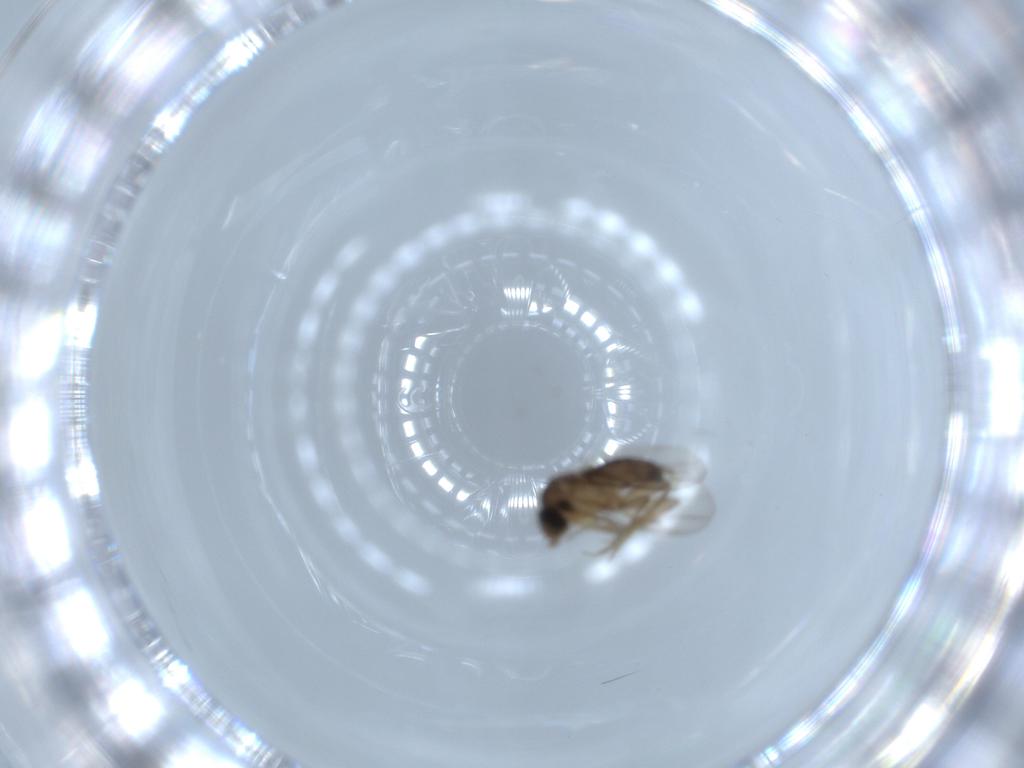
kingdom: Animalia
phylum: Arthropoda
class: Insecta
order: Diptera
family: Phoridae
